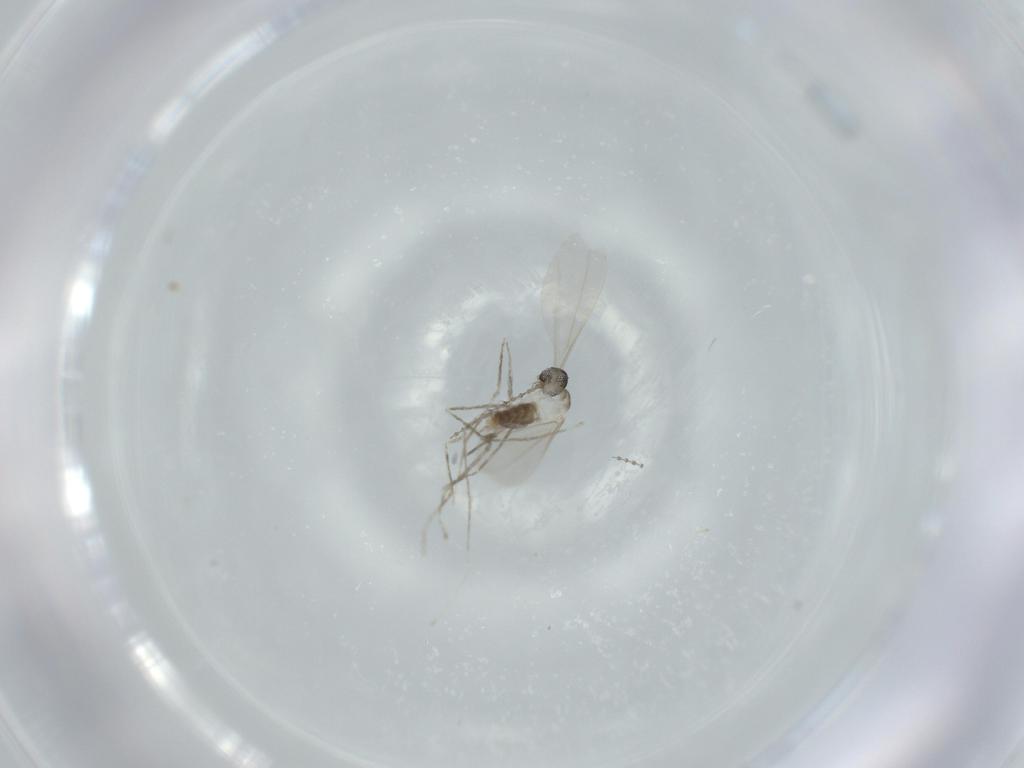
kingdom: Animalia
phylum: Arthropoda
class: Insecta
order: Diptera
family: Cecidomyiidae
